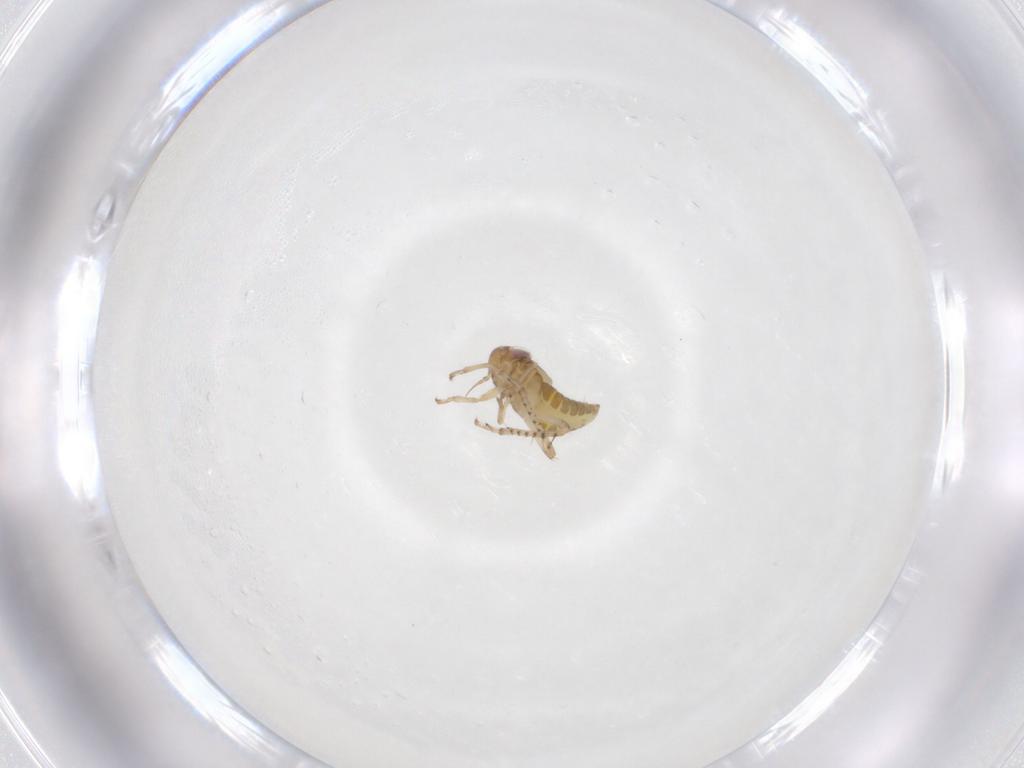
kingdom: Animalia
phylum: Arthropoda
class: Insecta
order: Hemiptera
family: Cicadellidae
